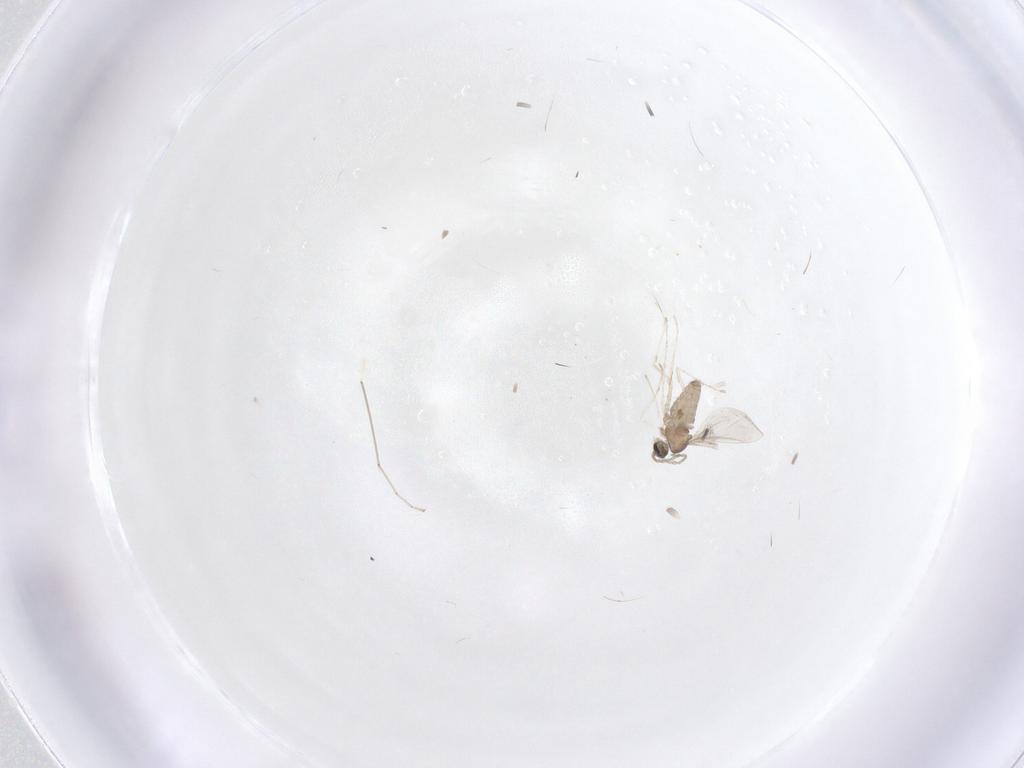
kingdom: Animalia
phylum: Arthropoda
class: Insecta
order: Diptera
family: Cecidomyiidae
